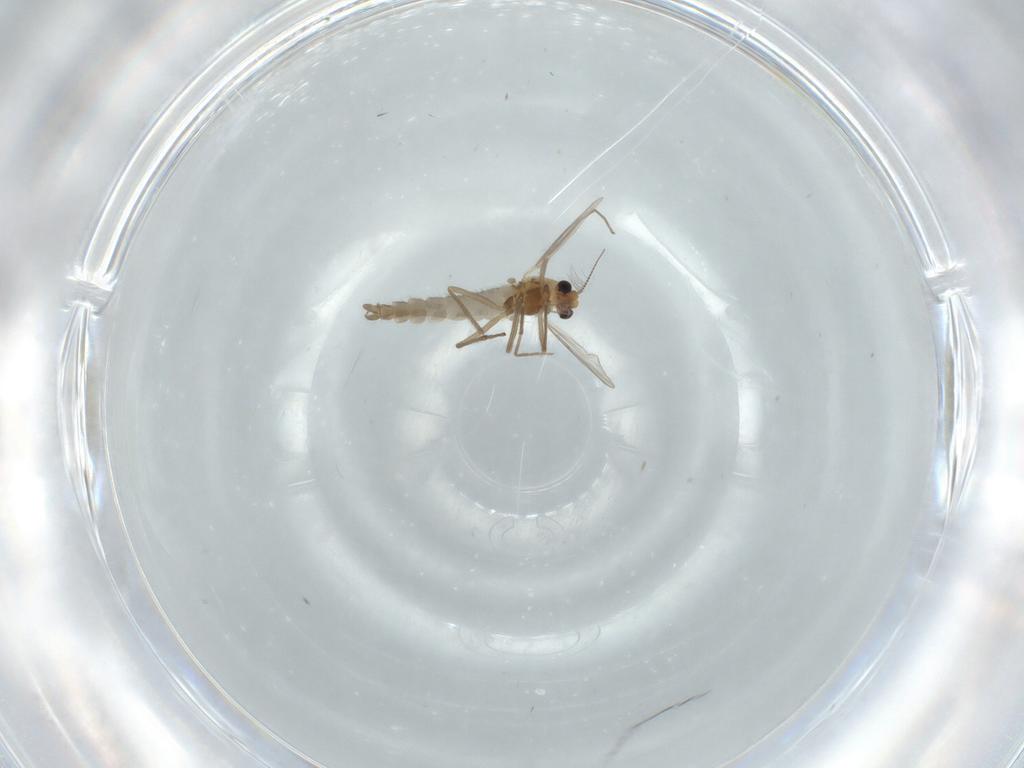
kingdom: Animalia
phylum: Arthropoda
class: Insecta
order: Diptera
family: Chironomidae
